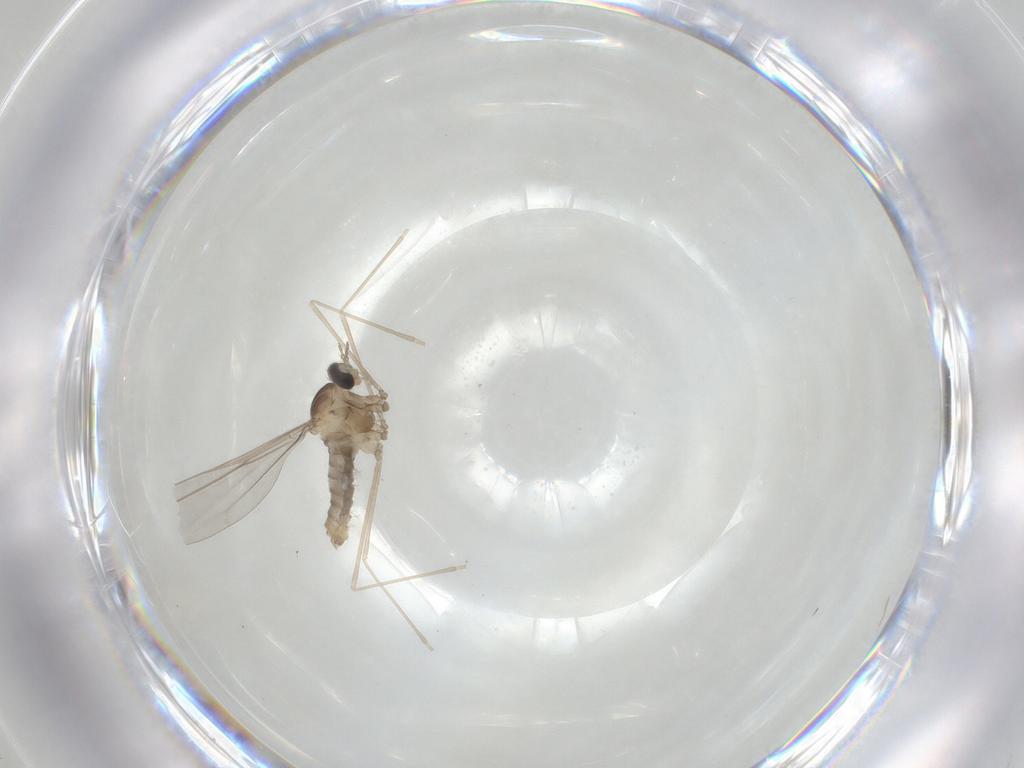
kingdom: Animalia
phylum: Arthropoda
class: Insecta
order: Diptera
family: Cecidomyiidae
